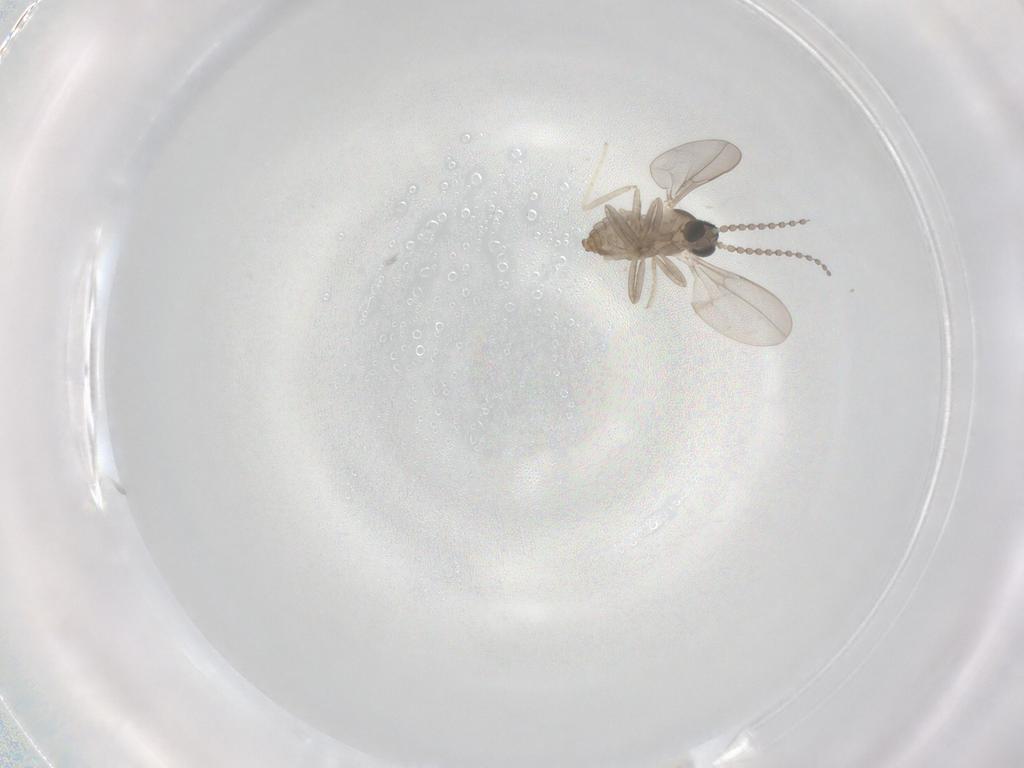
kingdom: Animalia
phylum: Arthropoda
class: Insecta
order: Diptera
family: Cecidomyiidae
